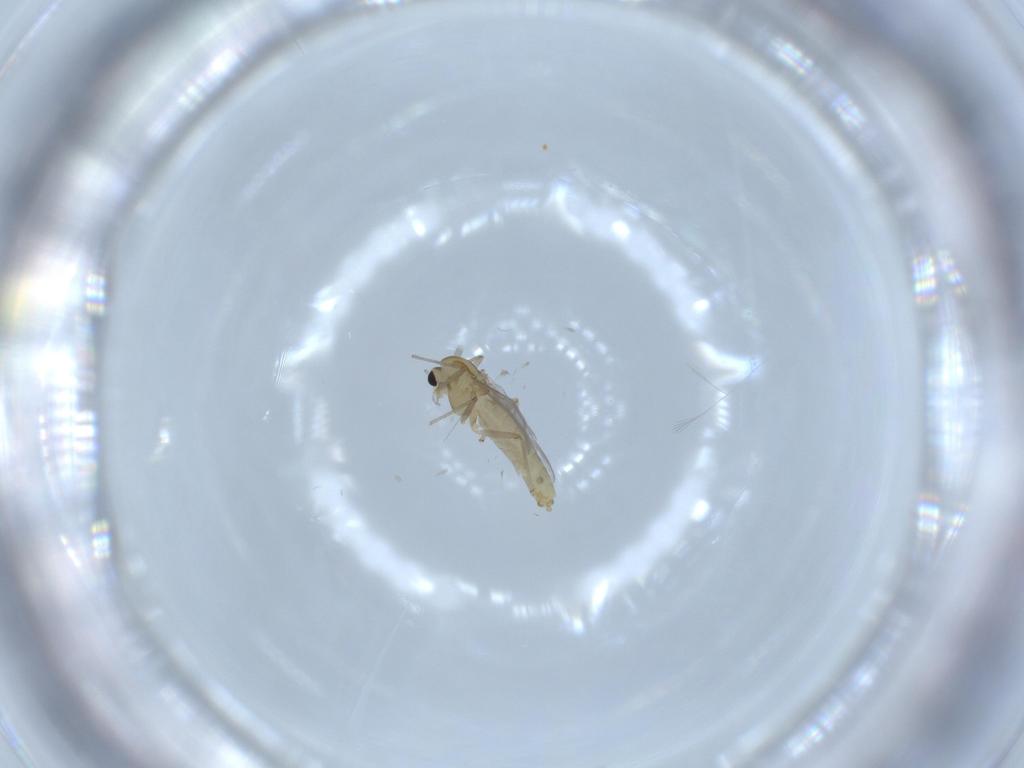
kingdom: Animalia
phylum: Arthropoda
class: Insecta
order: Diptera
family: Chironomidae
